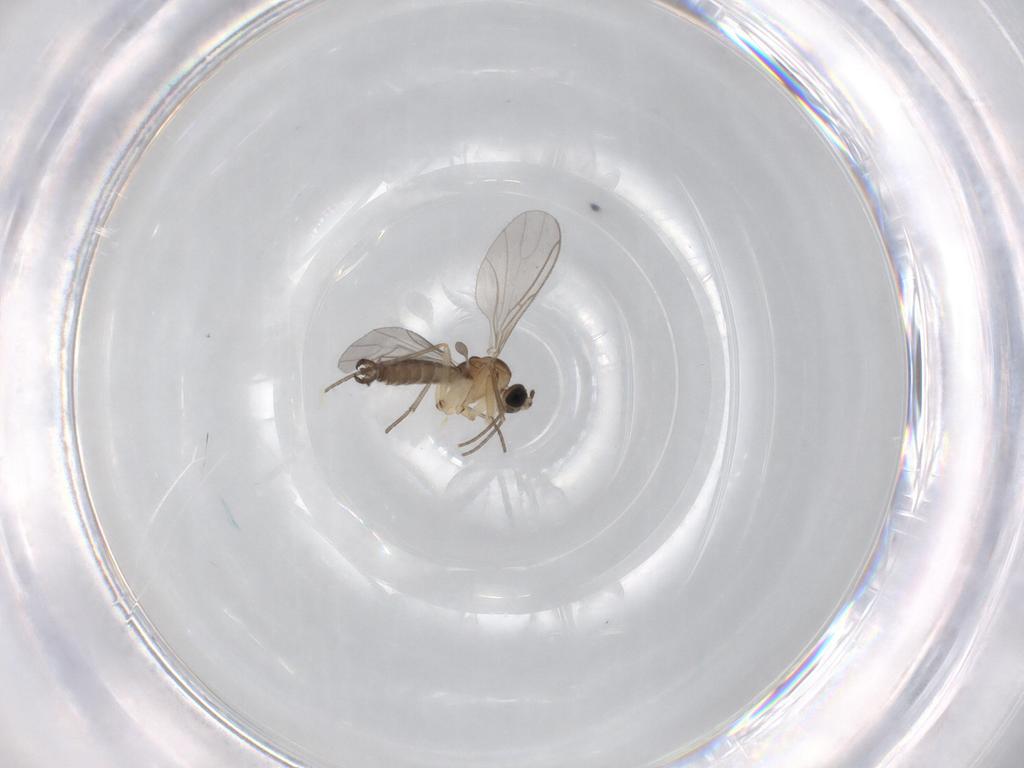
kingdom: Animalia
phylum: Arthropoda
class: Insecta
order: Diptera
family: Sciaridae
